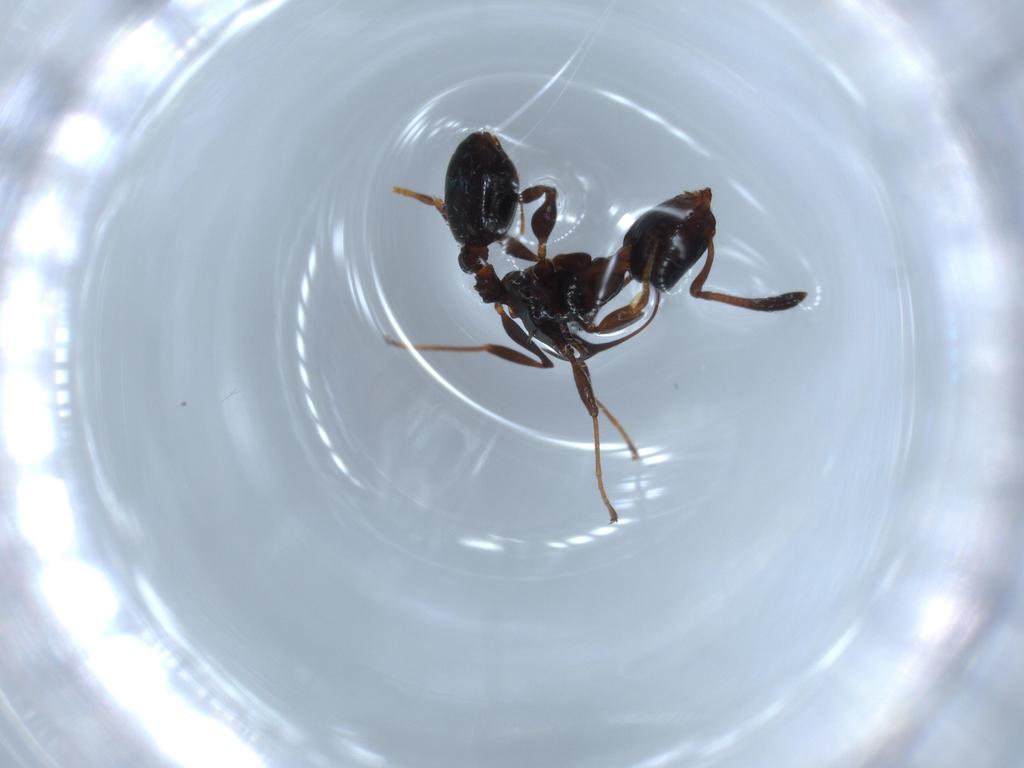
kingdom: Animalia
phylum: Arthropoda
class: Insecta
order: Hymenoptera
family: Formicidae
